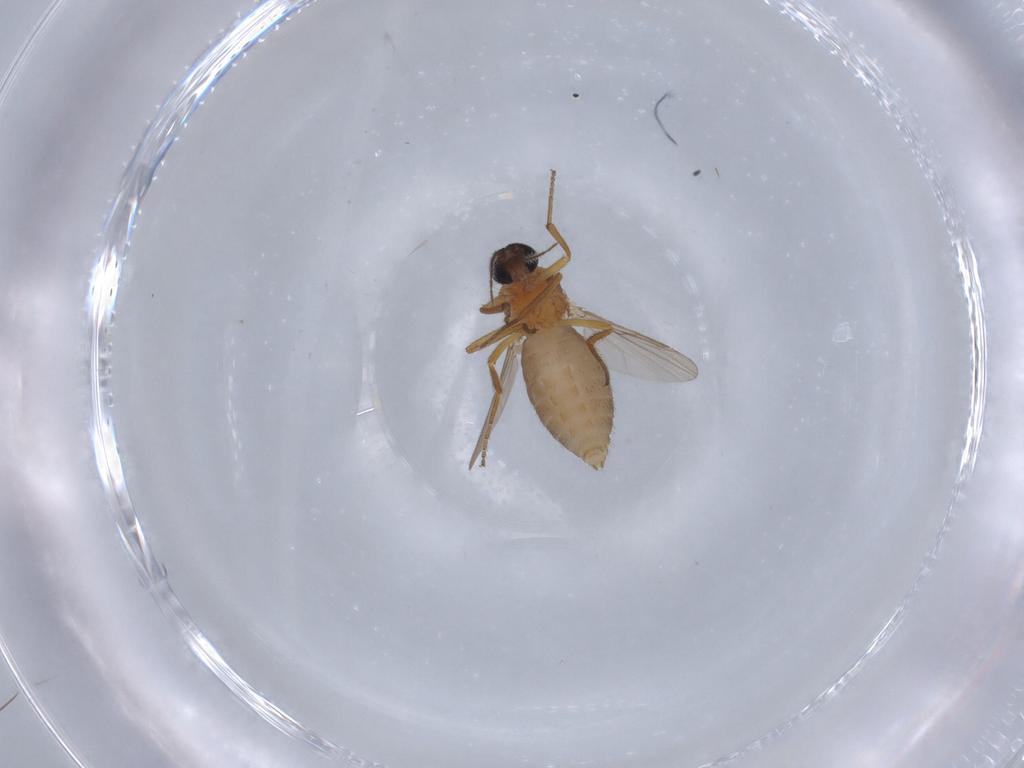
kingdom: Animalia
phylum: Arthropoda
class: Insecta
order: Diptera
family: Ceratopogonidae
